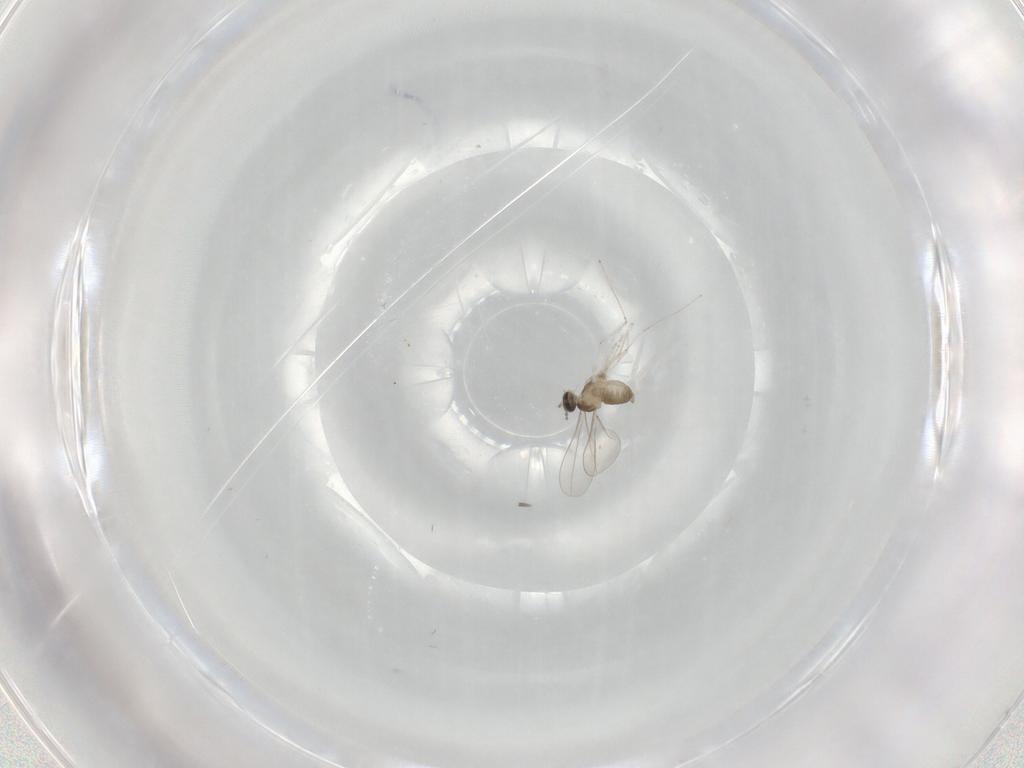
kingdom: Animalia
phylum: Arthropoda
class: Insecta
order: Diptera
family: Cecidomyiidae
